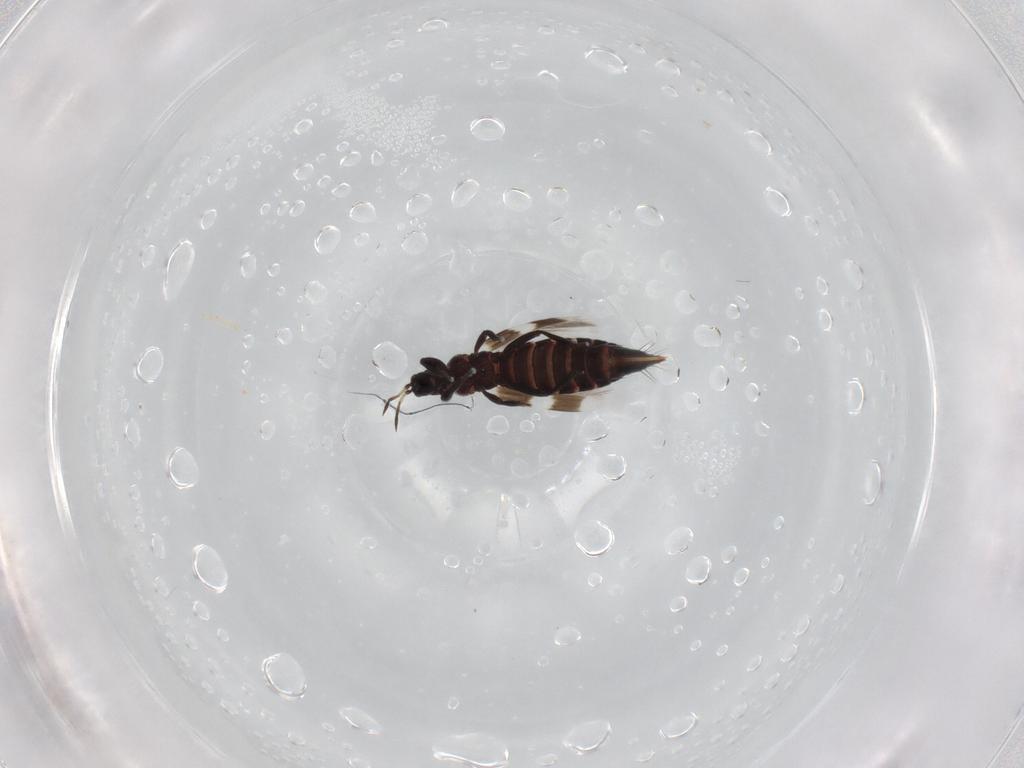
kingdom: Animalia
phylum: Arthropoda
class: Insecta
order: Thysanoptera
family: Aeolothripidae
